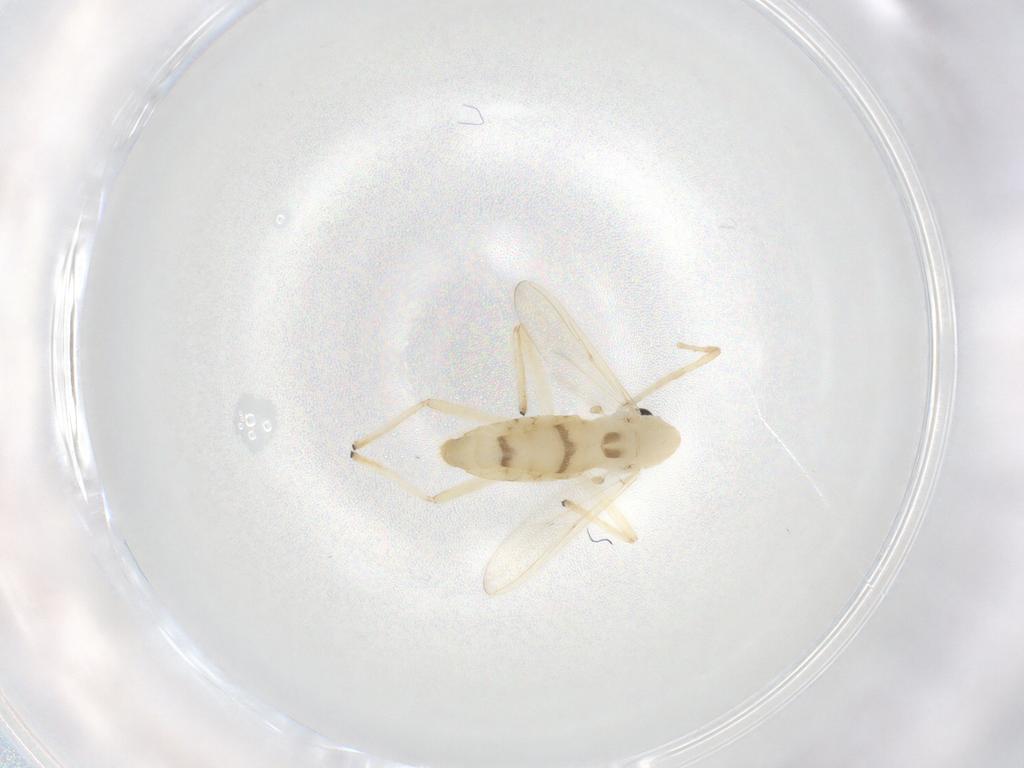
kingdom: Animalia
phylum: Arthropoda
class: Insecta
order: Diptera
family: Chironomidae
